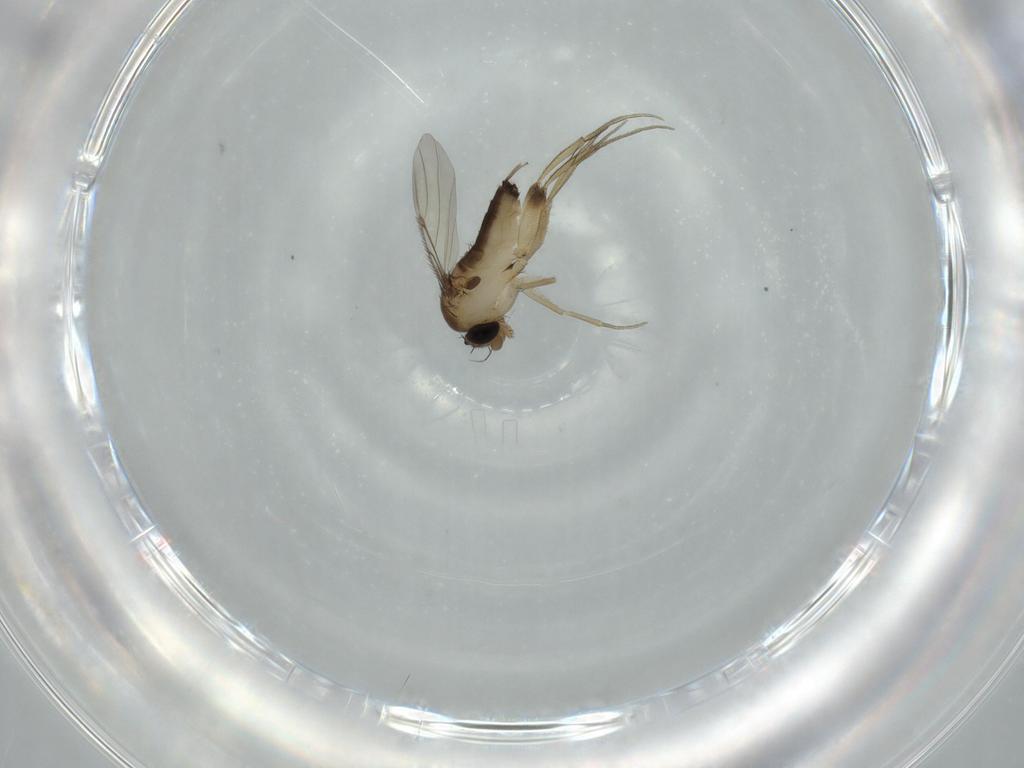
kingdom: Animalia
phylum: Arthropoda
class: Insecta
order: Diptera
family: Phoridae
